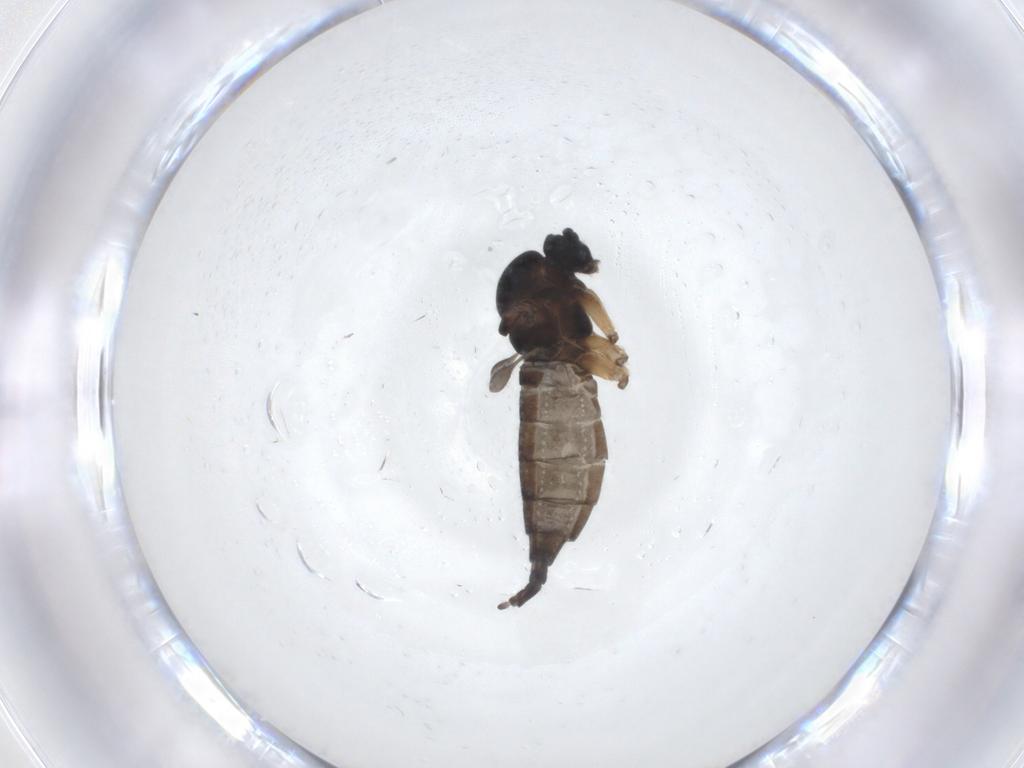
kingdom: Animalia
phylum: Arthropoda
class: Insecta
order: Diptera
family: Sciaridae
